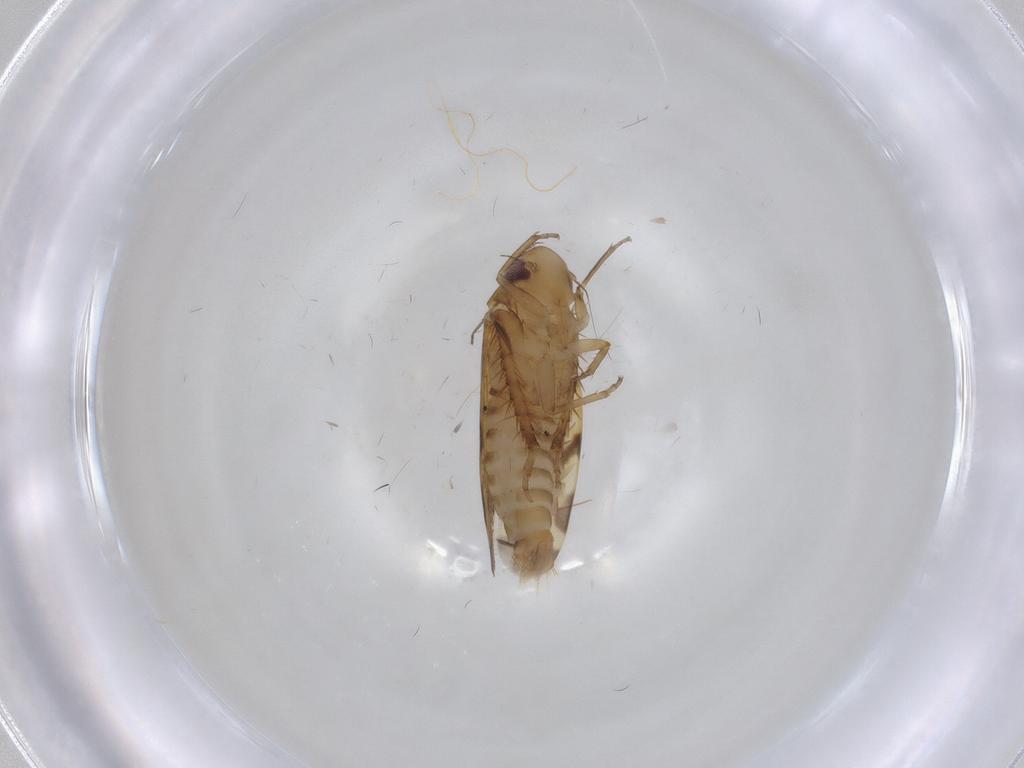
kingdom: Animalia
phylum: Arthropoda
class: Insecta
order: Hemiptera
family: Cicadellidae
